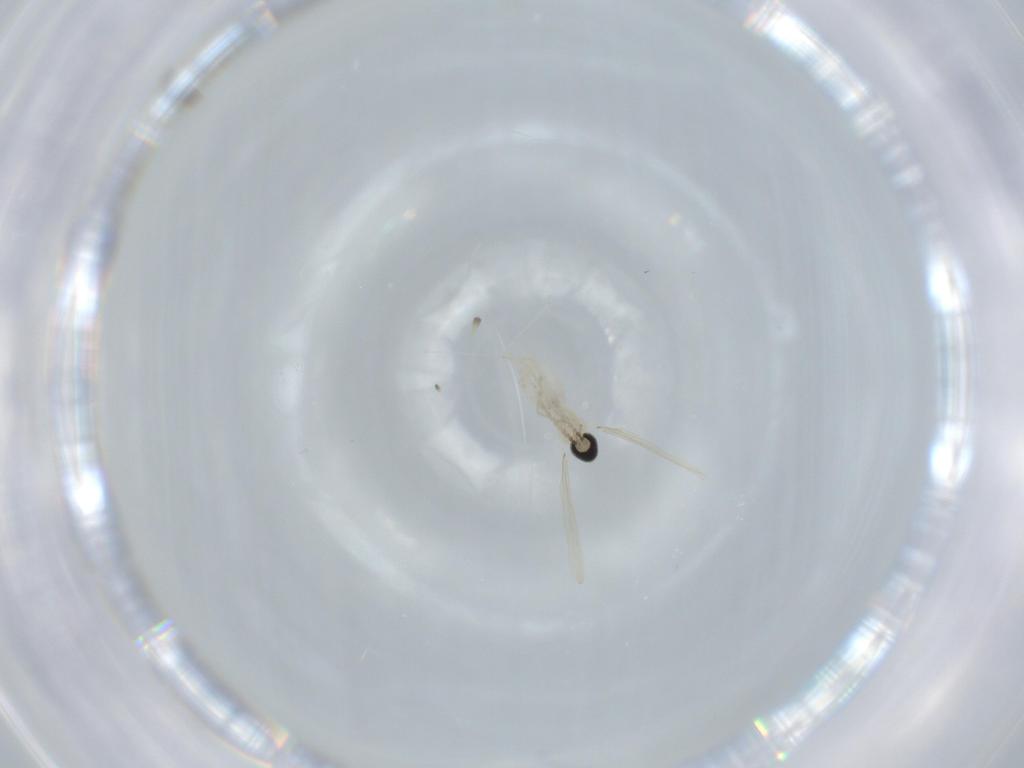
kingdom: Animalia
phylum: Arthropoda
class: Insecta
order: Diptera
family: Cecidomyiidae
